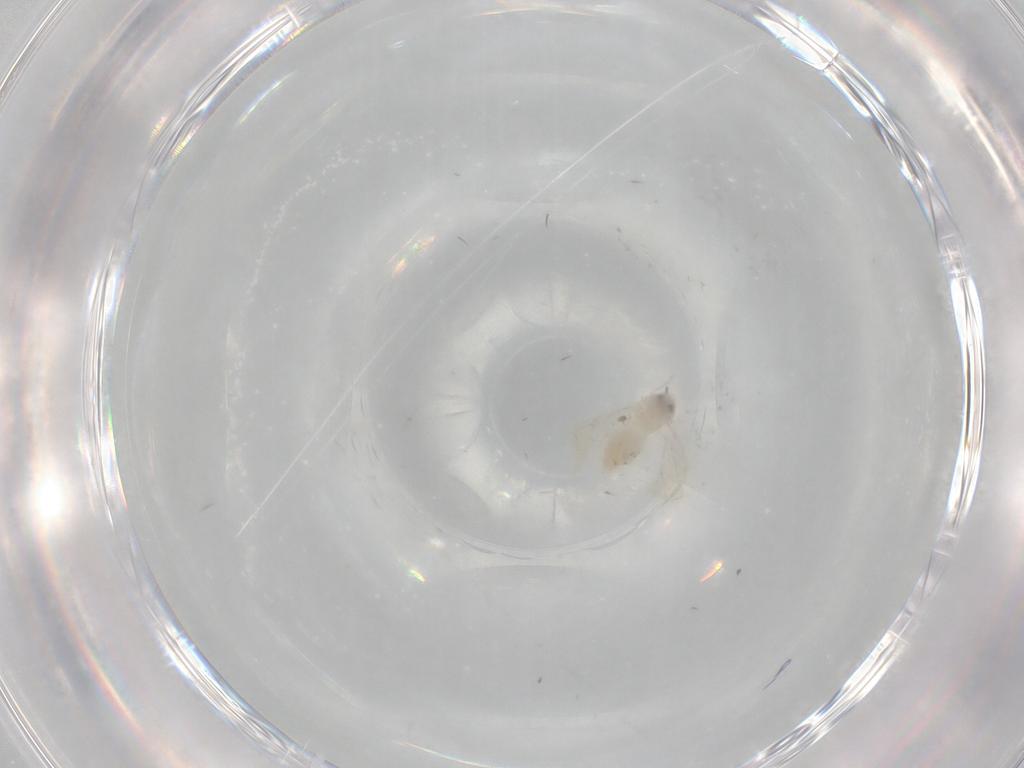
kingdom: Animalia
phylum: Arthropoda
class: Insecta
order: Hemiptera
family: Aleyrodidae
